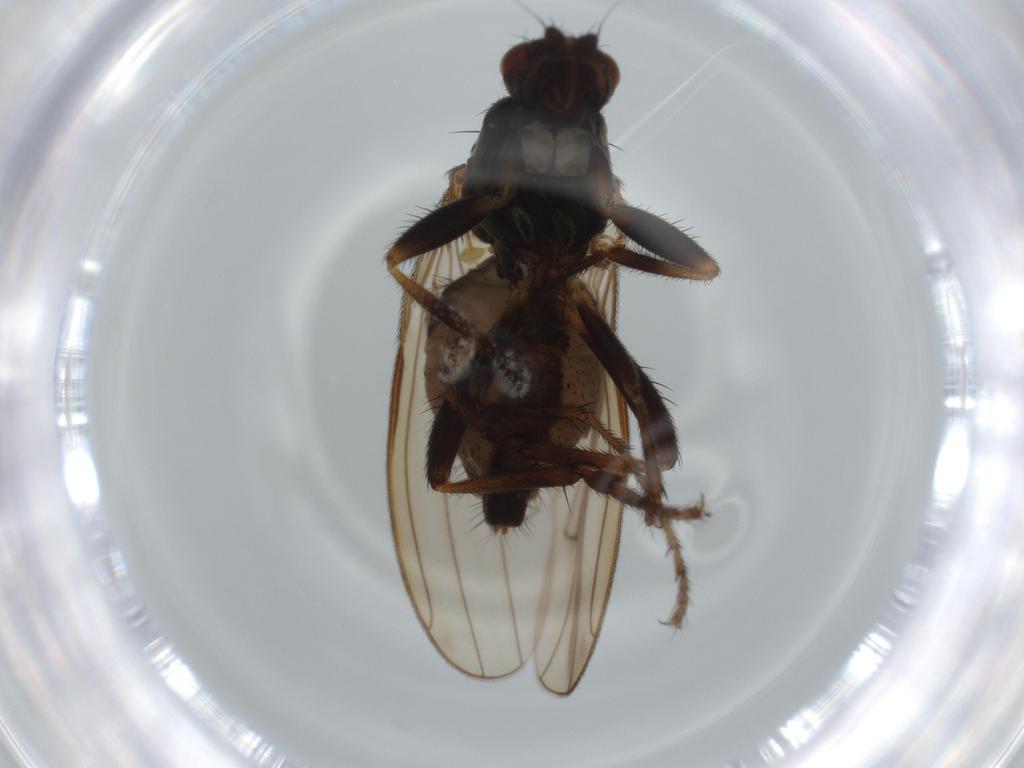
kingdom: Animalia
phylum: Arthropoda
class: Insecta
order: Diptera
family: Sphaeroceridae
